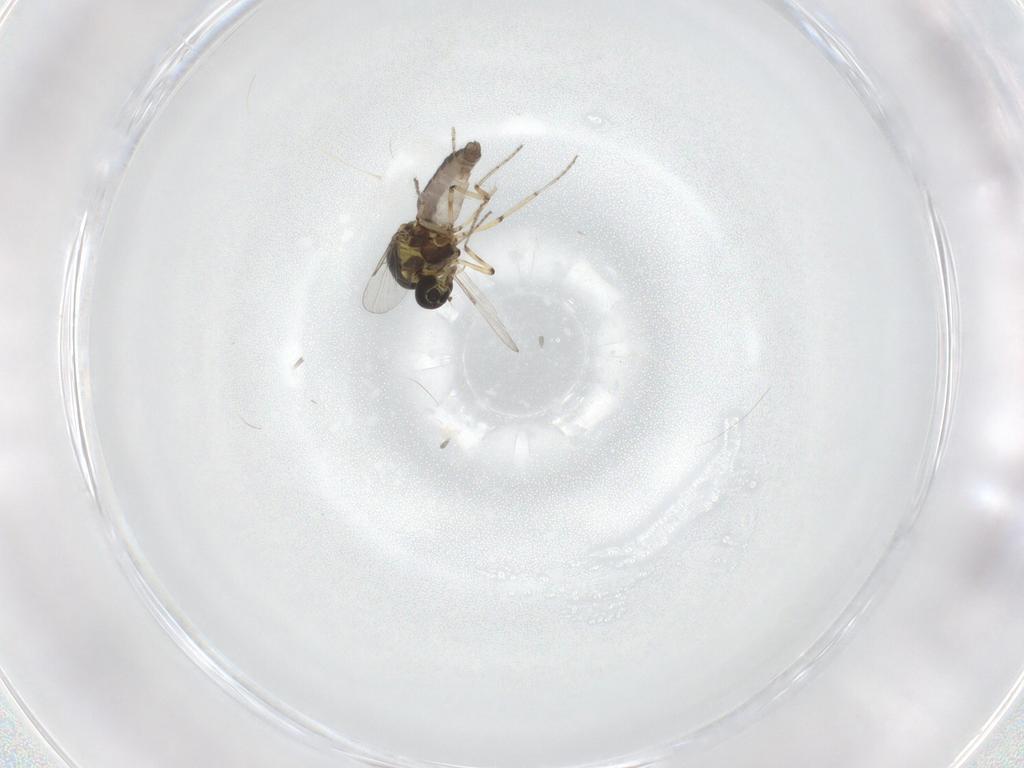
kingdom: Animalia
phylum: Arthropoda
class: Insecta
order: Diptera
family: Ceratopogonidae
